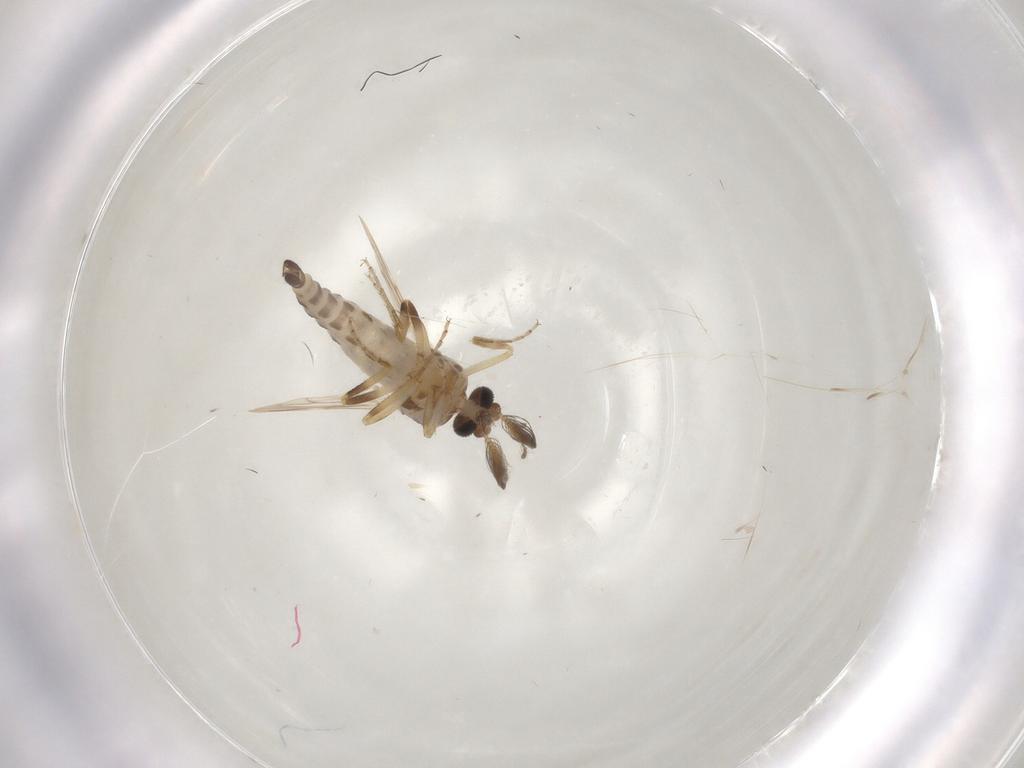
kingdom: Animalia
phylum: Arthropoda
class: Insecta
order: Diptera
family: Ceratopogonidae
